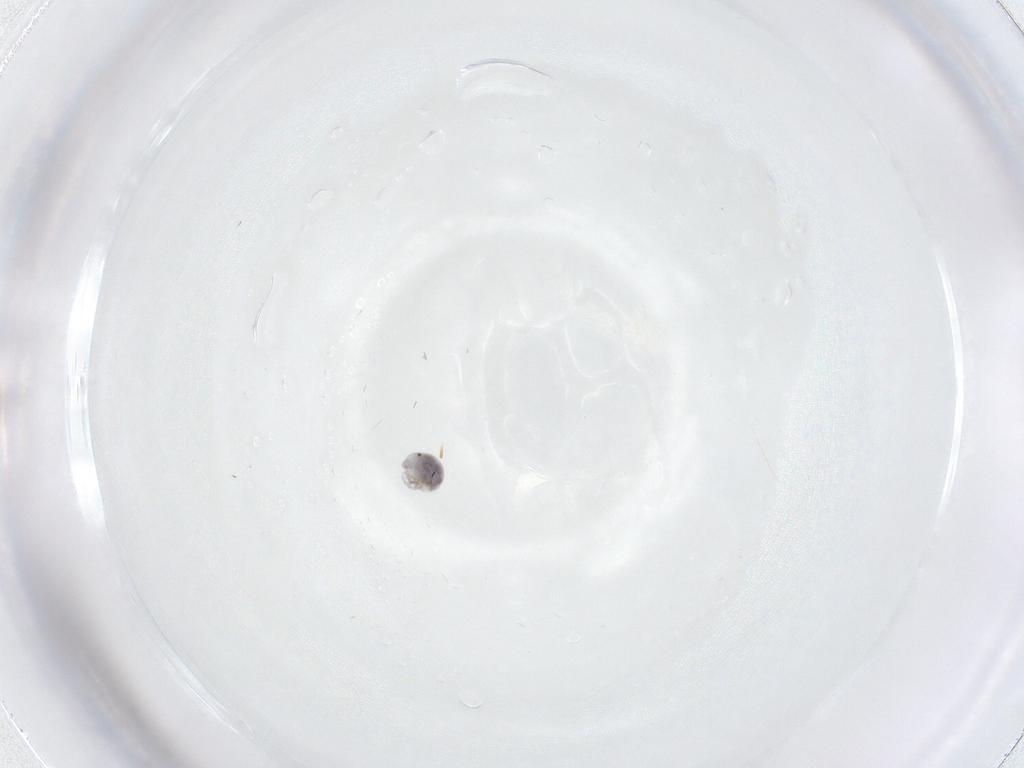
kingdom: Animalia
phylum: Arthropoda
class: Arachnida
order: Trombidiformes
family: Pionidae
